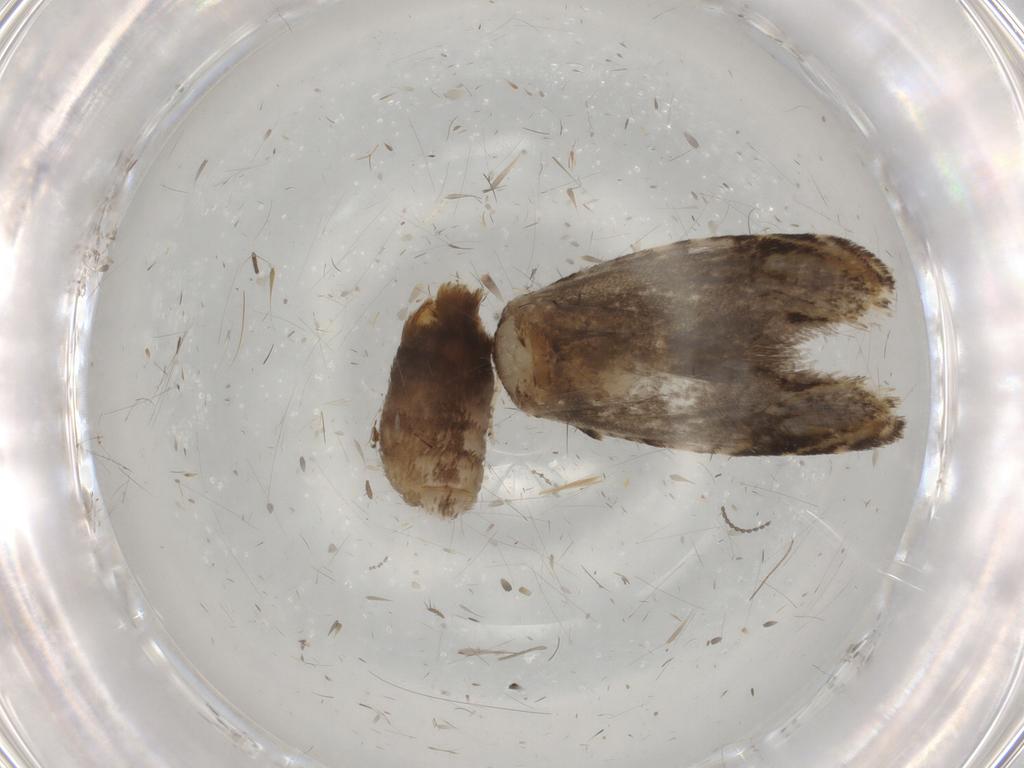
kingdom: Animalia
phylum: Arthropoda
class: Insecta
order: Lepidoptera
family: Tineidae
